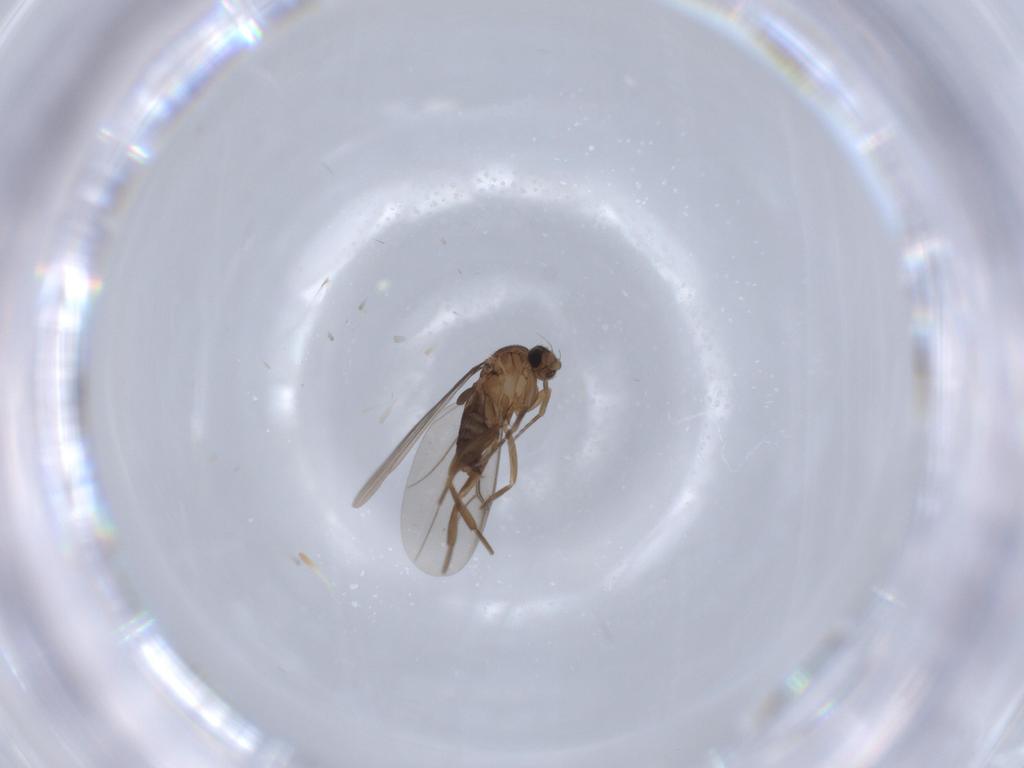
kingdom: Animalia
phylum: Arthropoda
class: Insecta
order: Diptera
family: Phoridae
